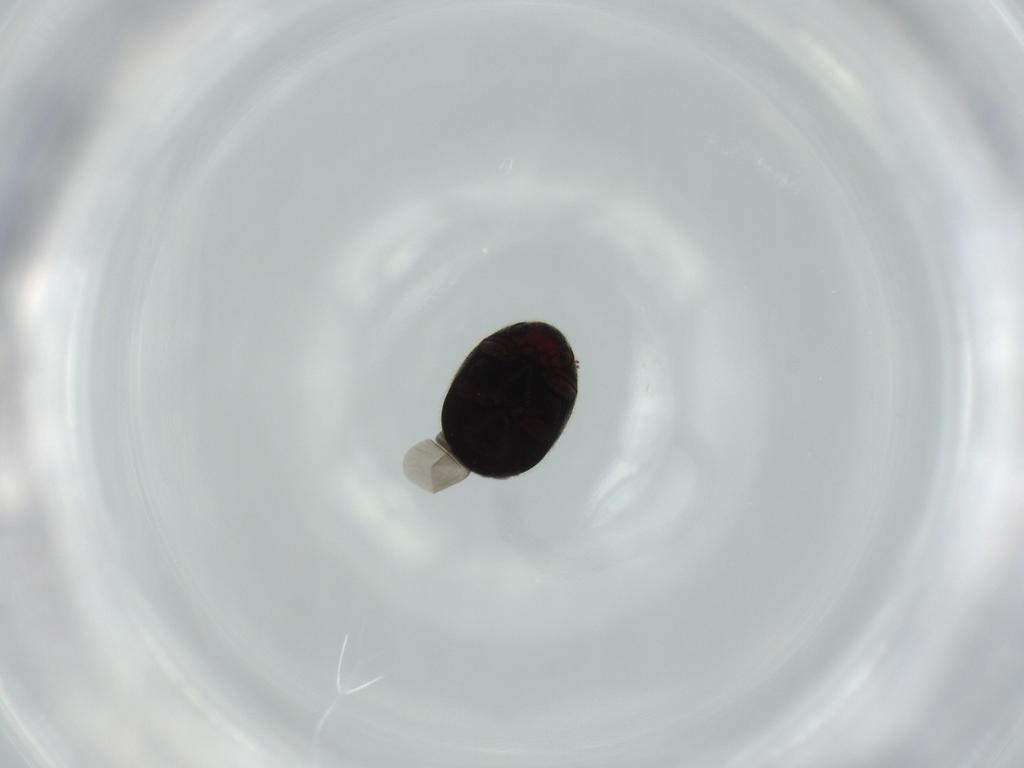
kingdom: Animalia
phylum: Arthropoda
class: Insecta
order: Coleoptera
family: Ptinidae
